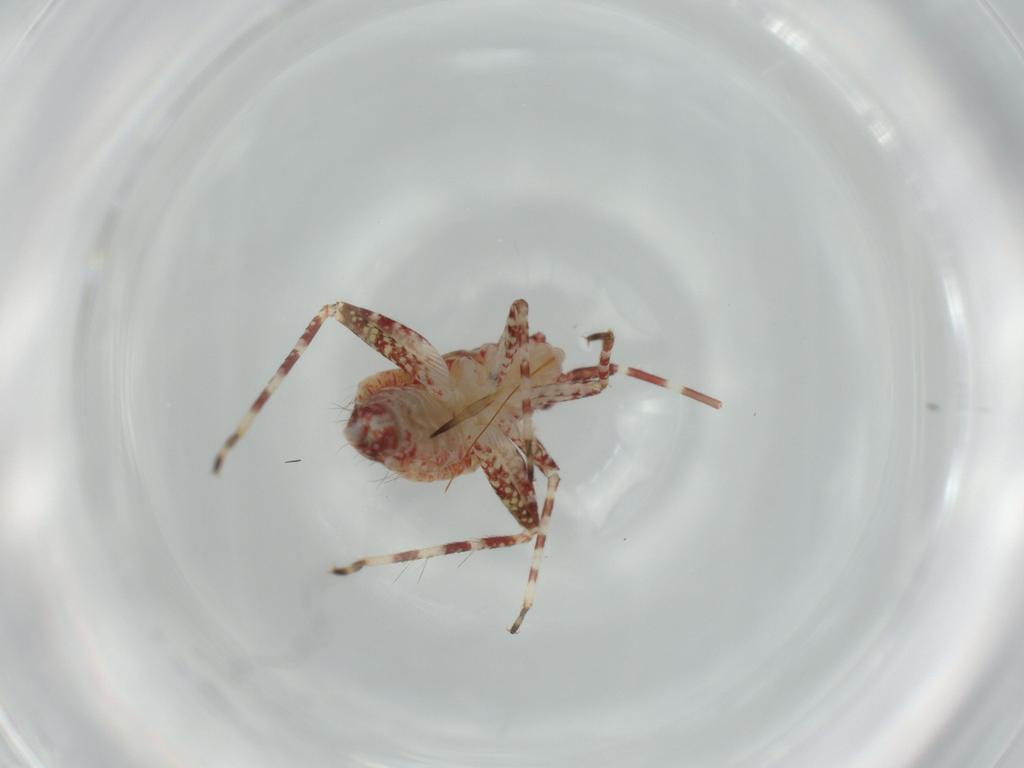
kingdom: Animalia
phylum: Arthropoda
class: Insecta
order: Hemiptera
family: Miridae
